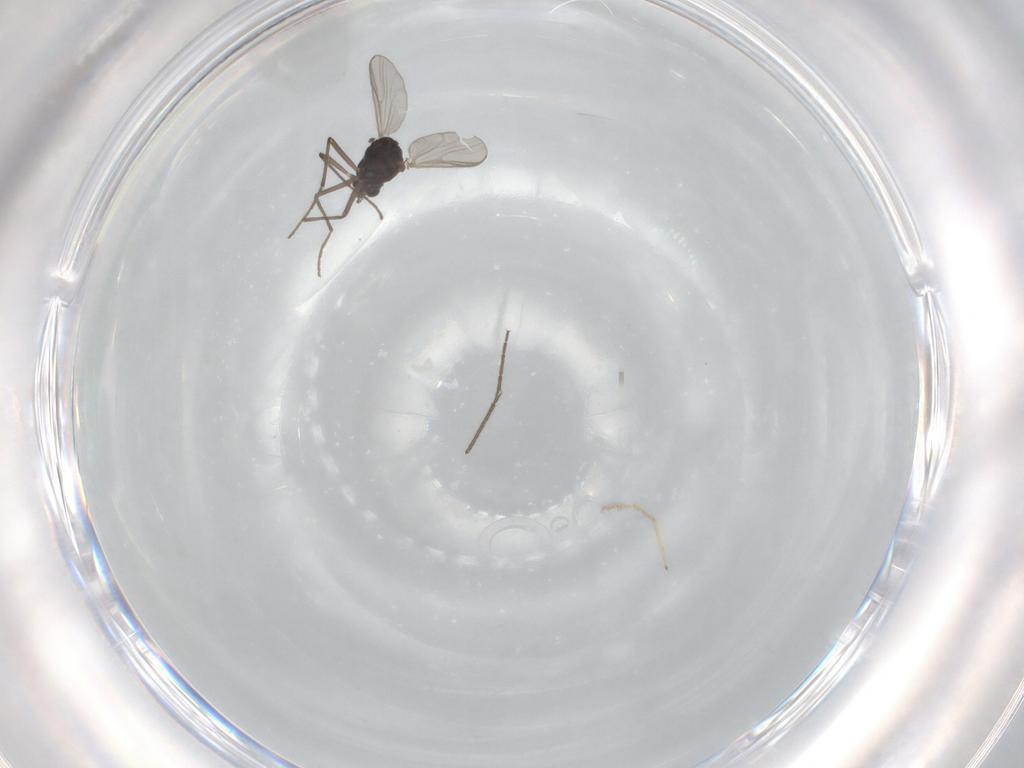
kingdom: Animalia
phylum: Arthropoda
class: Insecta
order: Diptera
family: Chironomidae
